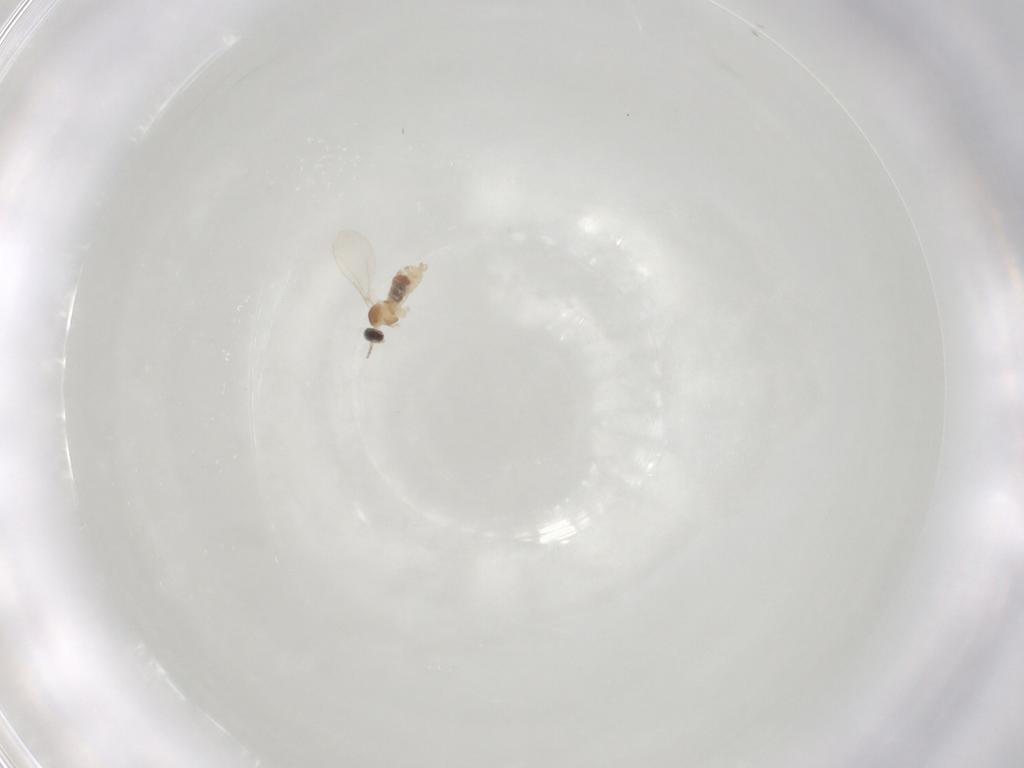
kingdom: Animalia
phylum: Arthropoda
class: Insecta
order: Diptera
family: Cecidomyiidae
